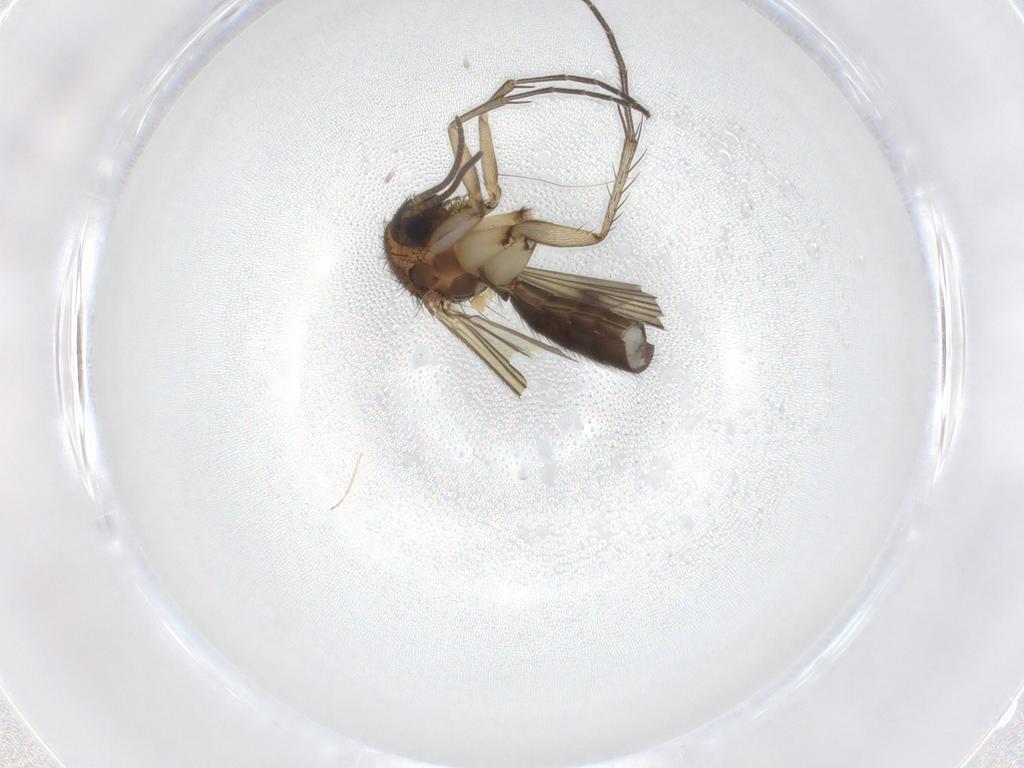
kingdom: Animalia
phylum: Arthropoda
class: Insecta
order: Diptera
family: Chironomidae
